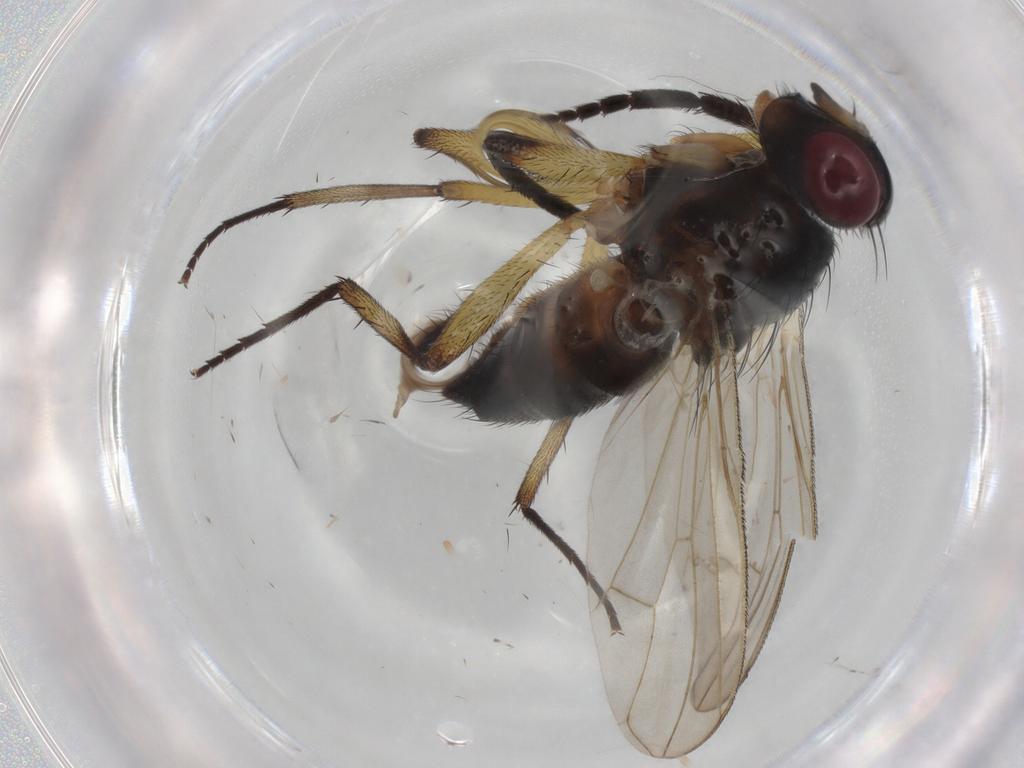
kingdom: Animalia
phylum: Arthropoda
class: Insecta
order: Diptera
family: Tachinidae
